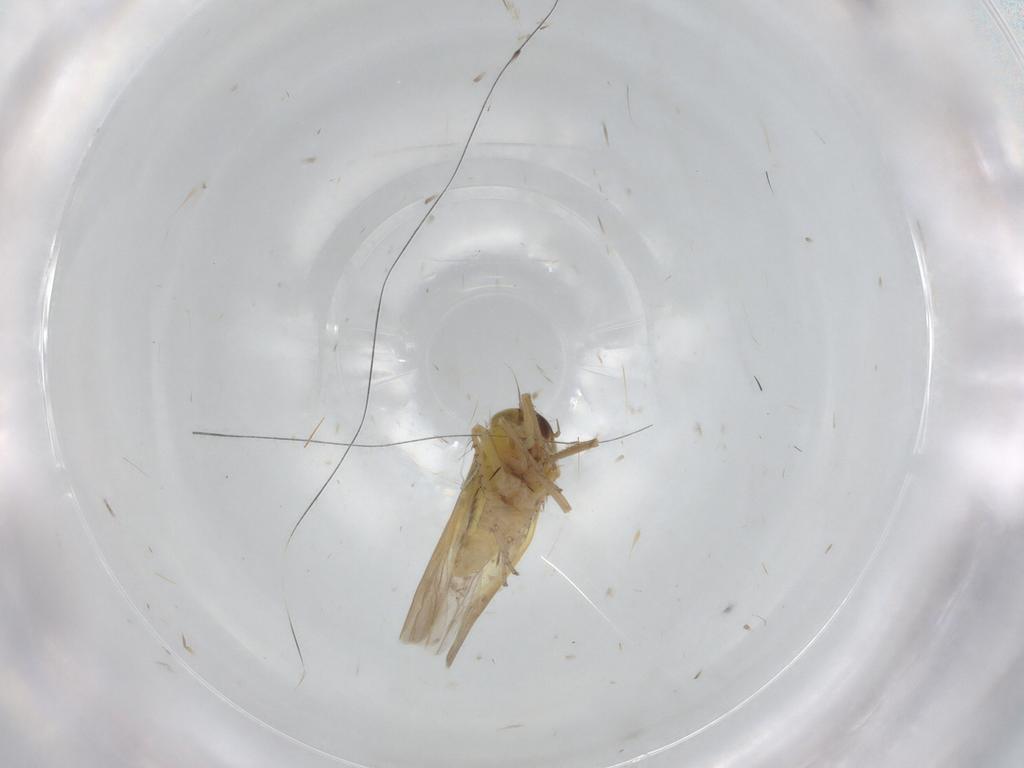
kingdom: Animalia
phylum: Arthropoda
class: Insecta
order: Hemiptera
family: Cicadellidae
